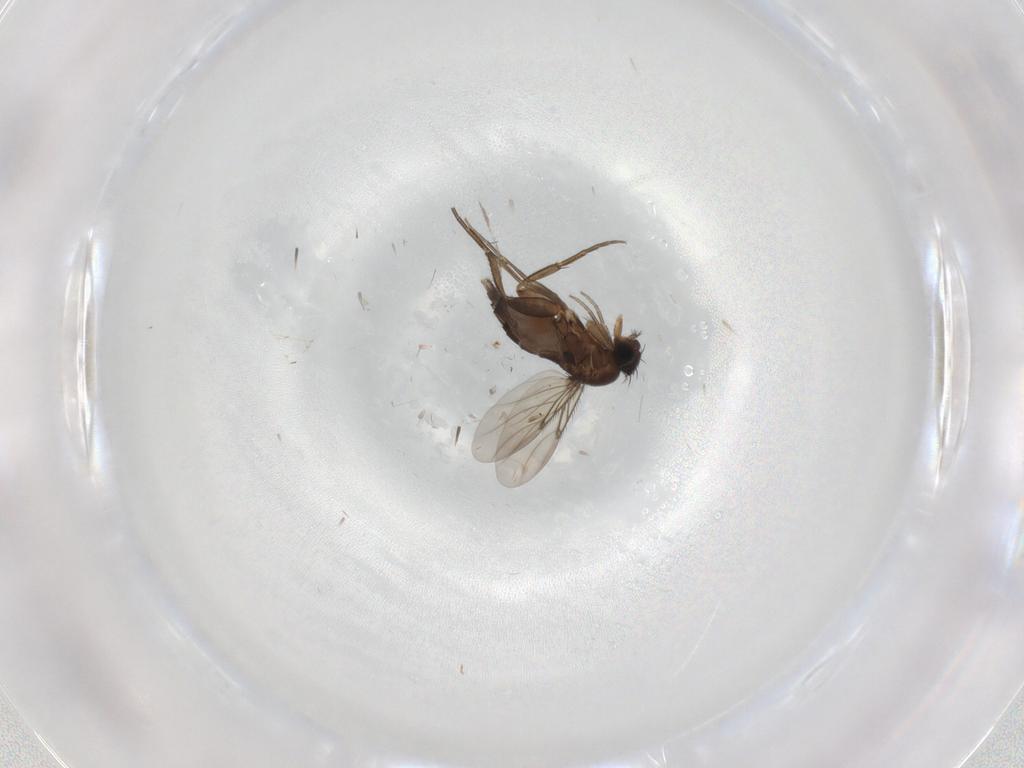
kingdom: Animalia
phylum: Arthropoda
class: Insecta
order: Diptera
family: Phoridae
